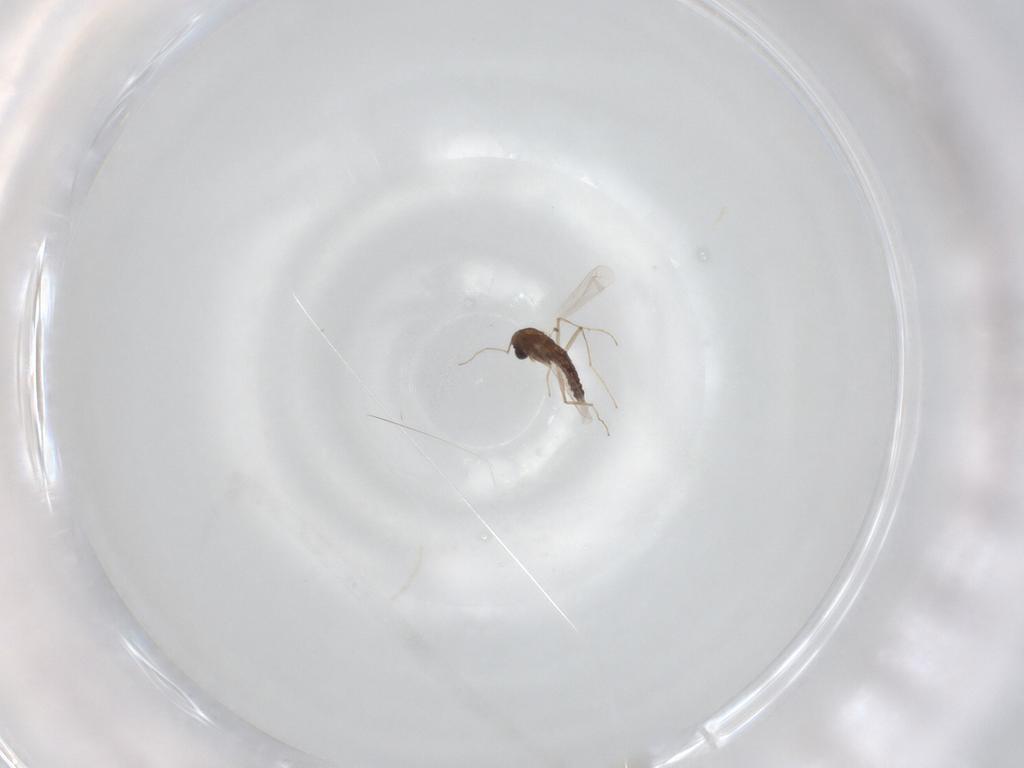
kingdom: Animalia
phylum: Arthropoda
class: Insecta
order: Diptera
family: Chironomidae
